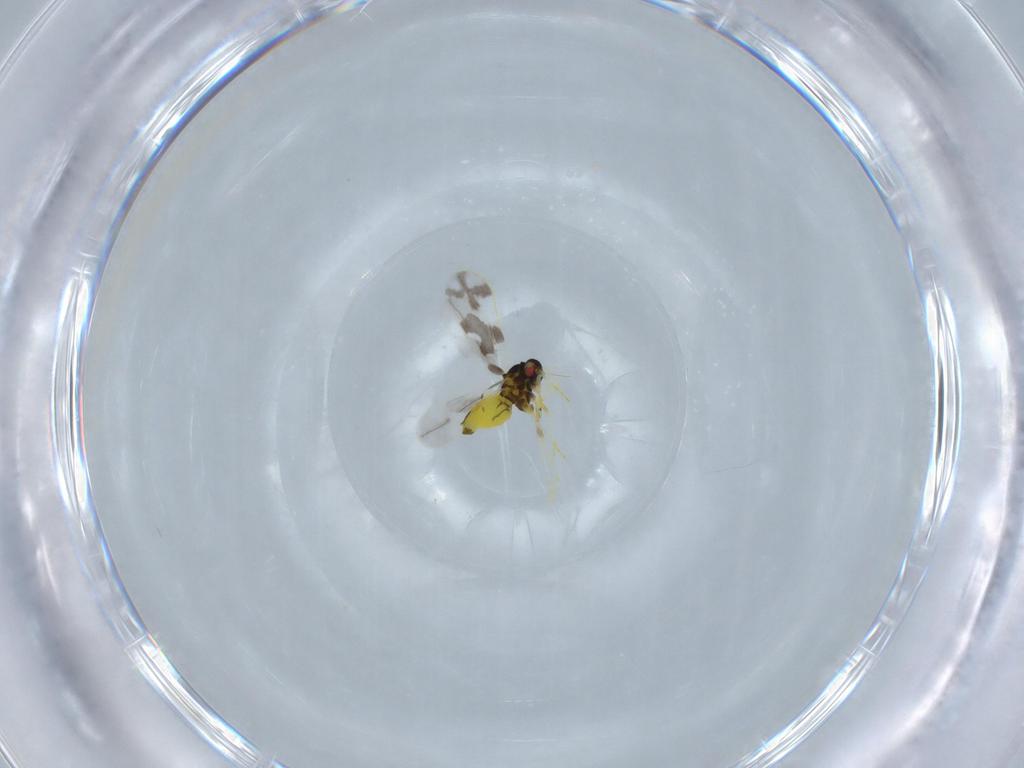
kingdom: Animalia
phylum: Arthropoda
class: Insecta
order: Hemiptera
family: Aleyrodidae
